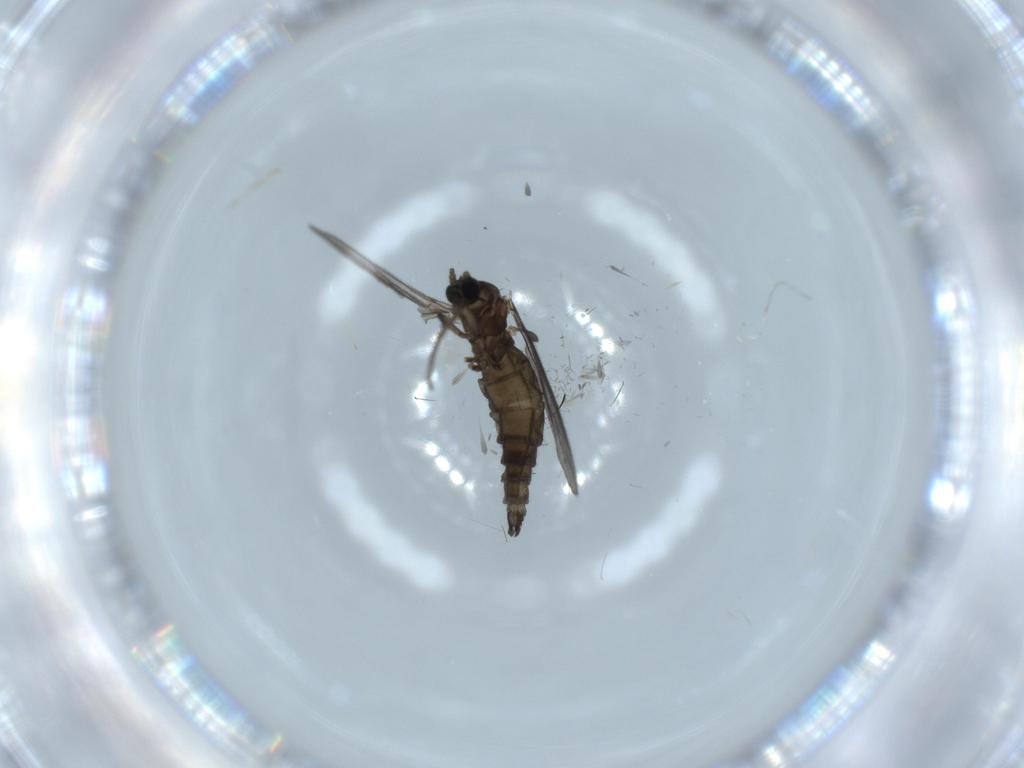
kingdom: Animalia
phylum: Arthropoda
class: Insecta
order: Diptera
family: Sciaridae
